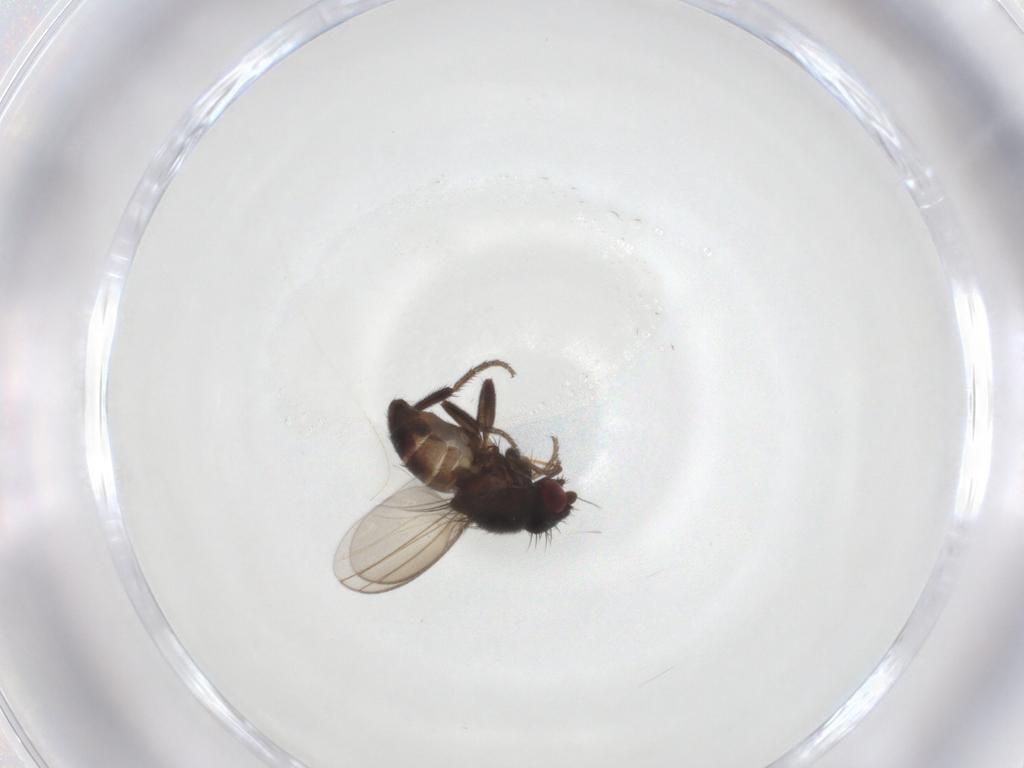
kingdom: Animalia
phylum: Arthropoda
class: Insecta
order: Diptera
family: Milichiidae
